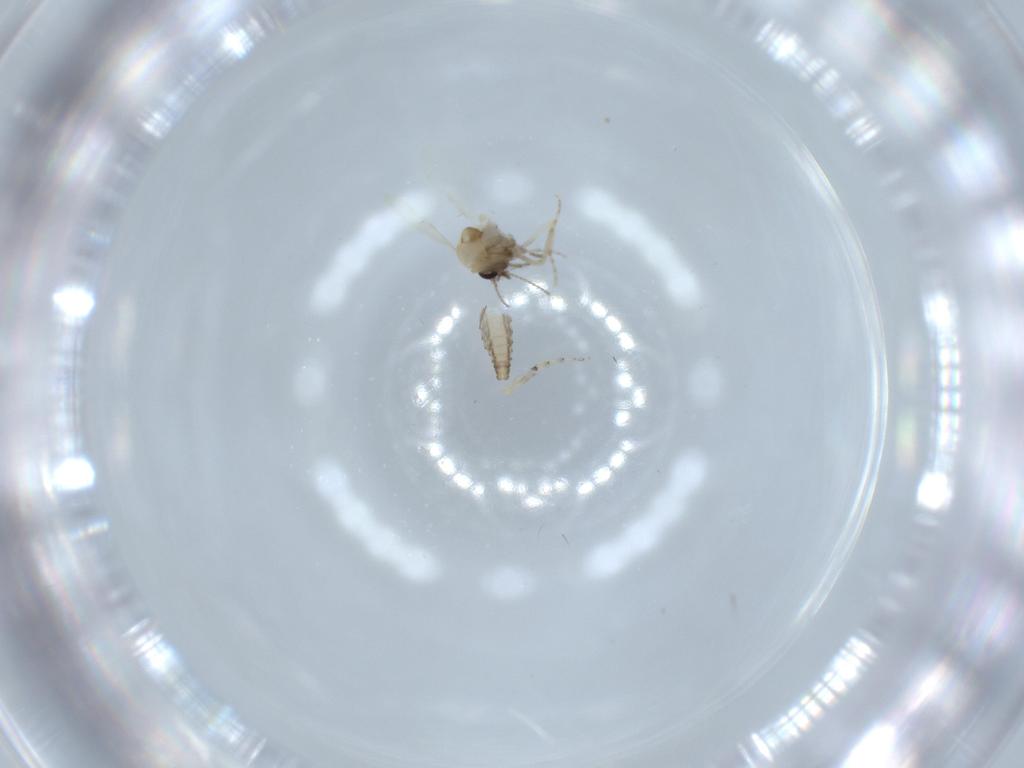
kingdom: Animalia
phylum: Arthropoda
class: Insecta
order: Diptera
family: Ceratopogonidae
